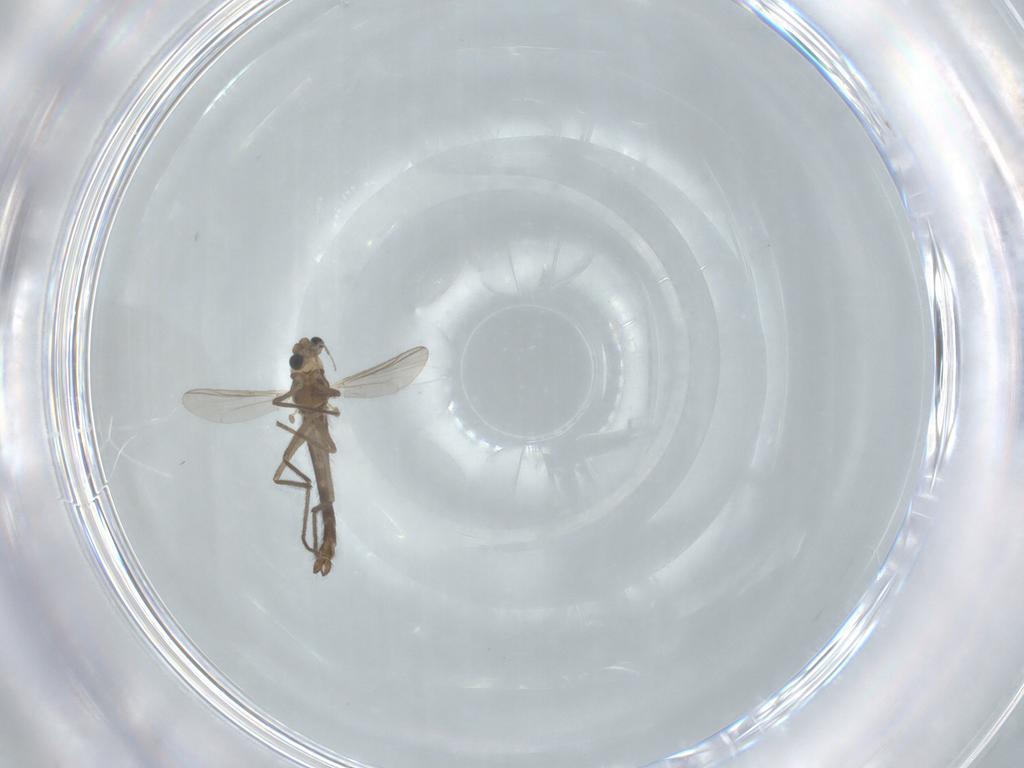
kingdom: Animalia
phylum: Arthropoda
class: Insecta
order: Diptera
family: Chironomidae
